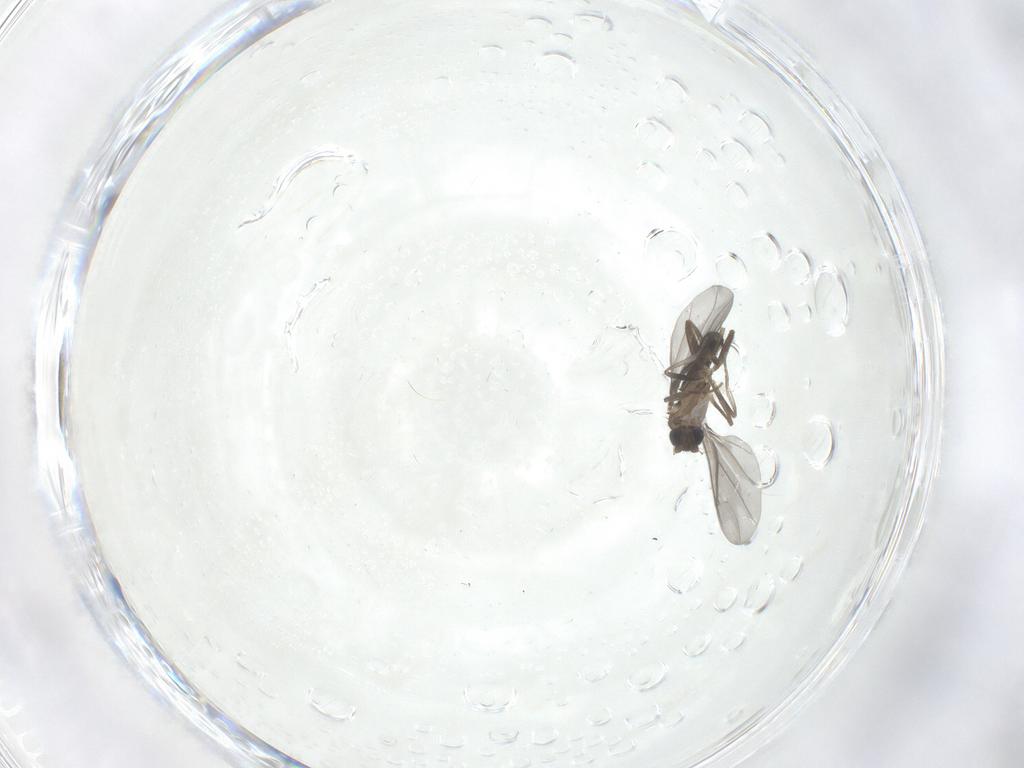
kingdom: Animalia
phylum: Arthropoda
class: Insecta
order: Diptera
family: Phoridae
